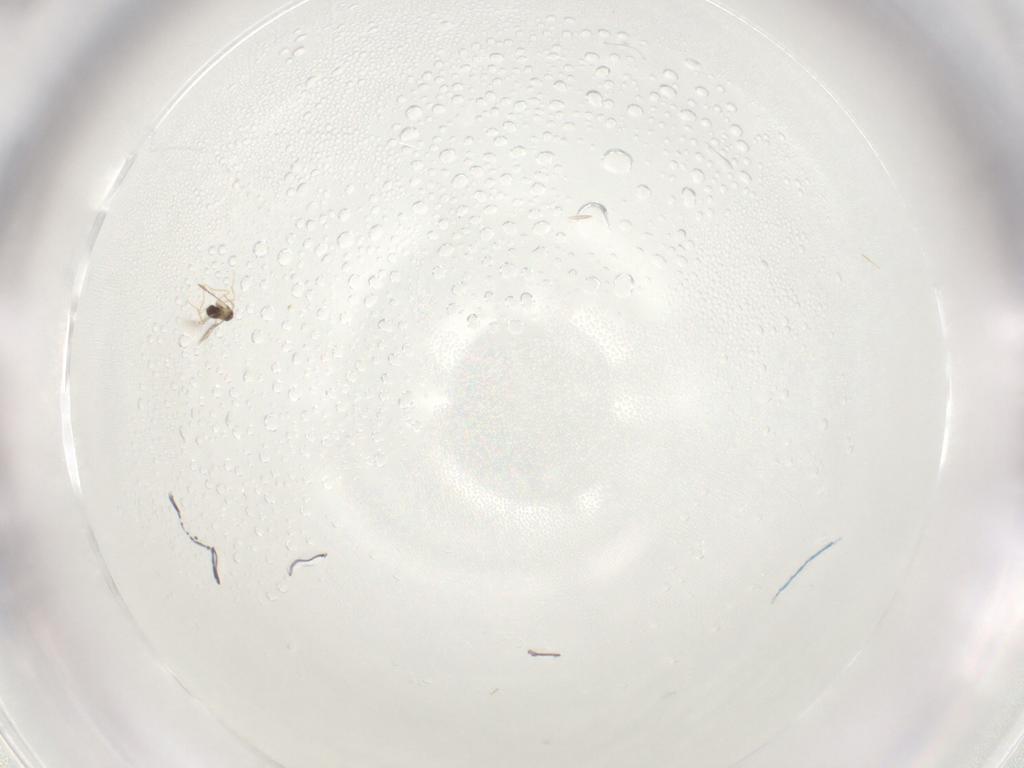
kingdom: Animalia
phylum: Arthropoda
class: Insecta
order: Hymenoptera
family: Mymaridae
